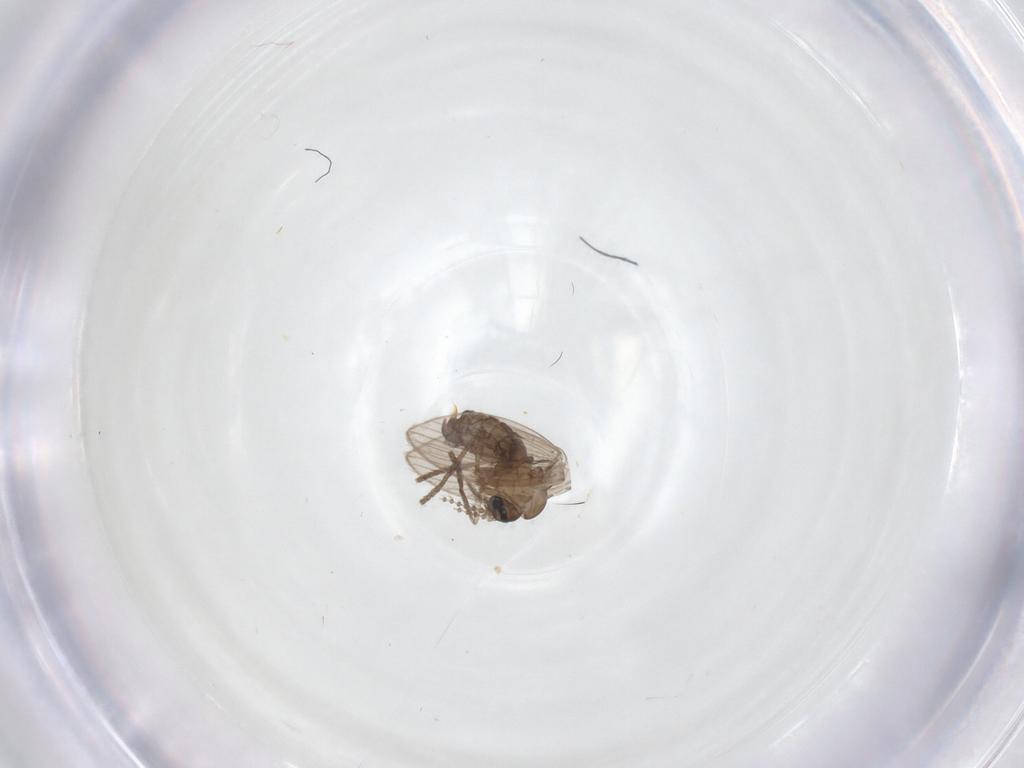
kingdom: Animalia
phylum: Arthropoda
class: Insecta
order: Diptera
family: Psychodidae
